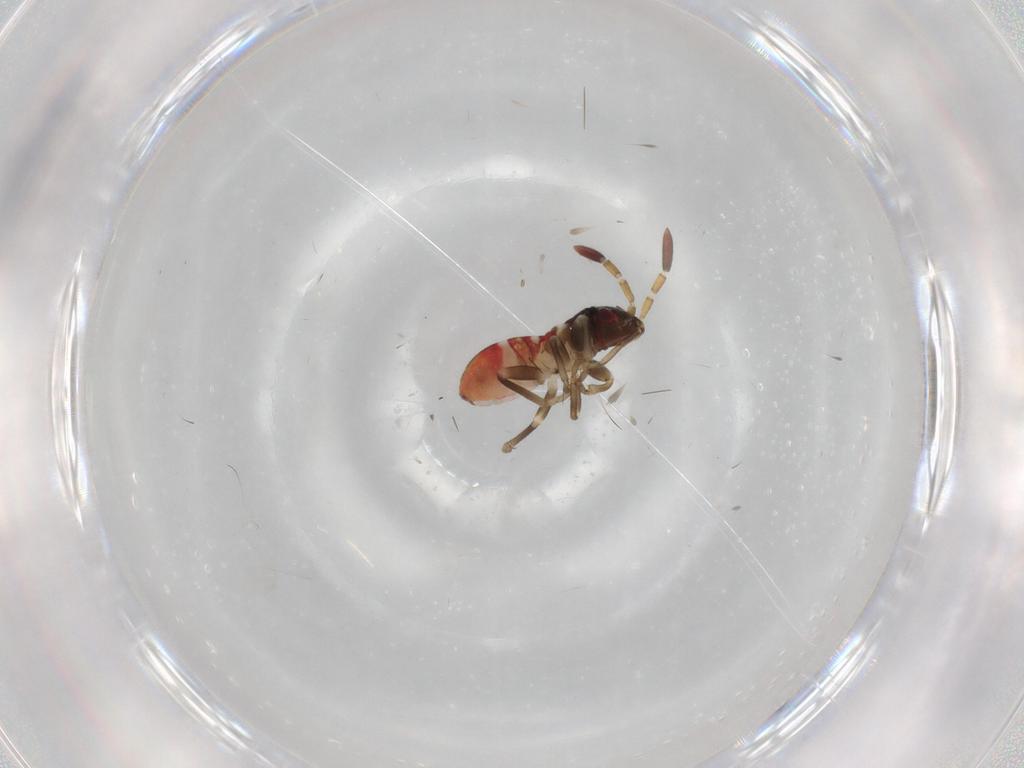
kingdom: Animalia
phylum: Arthropoda
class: Insecta
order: Hemiptera
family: Rhyparochromidae
